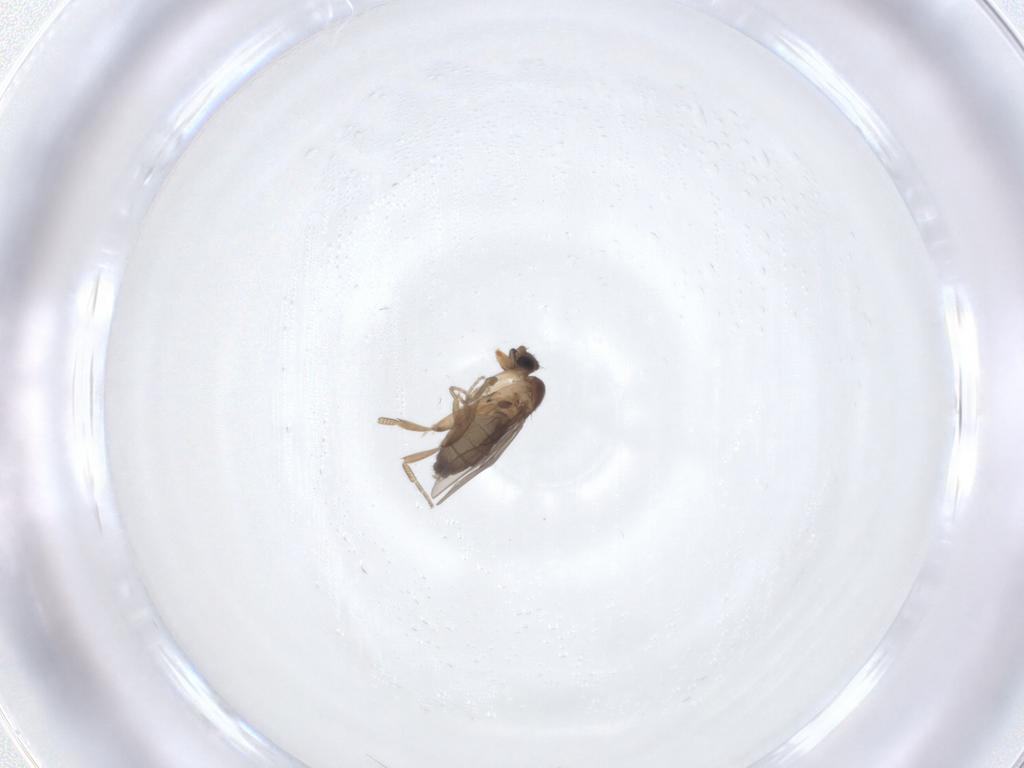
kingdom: Animalia
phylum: Arthropoda
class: Insecta
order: Diptera
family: Phoridae
